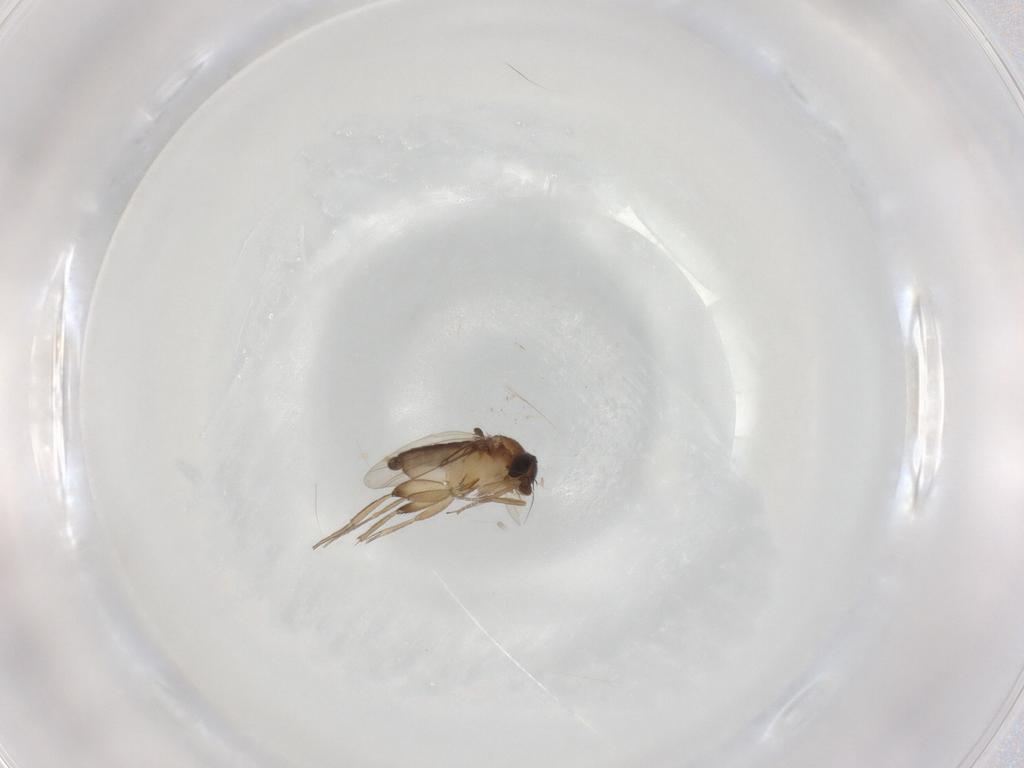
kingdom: Animalia
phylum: Arthropoda
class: Insecta
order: Diptera
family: Phoridae
